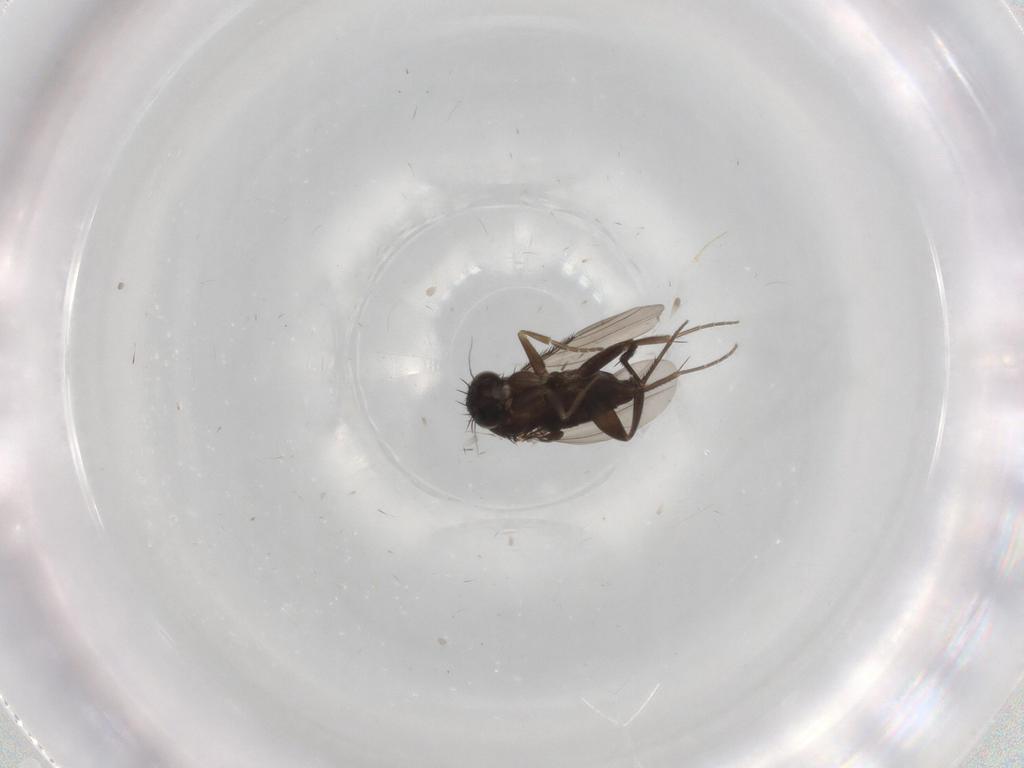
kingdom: Animalia
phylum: Arthropoda
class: Insecta
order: Diptera
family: Phoridae
